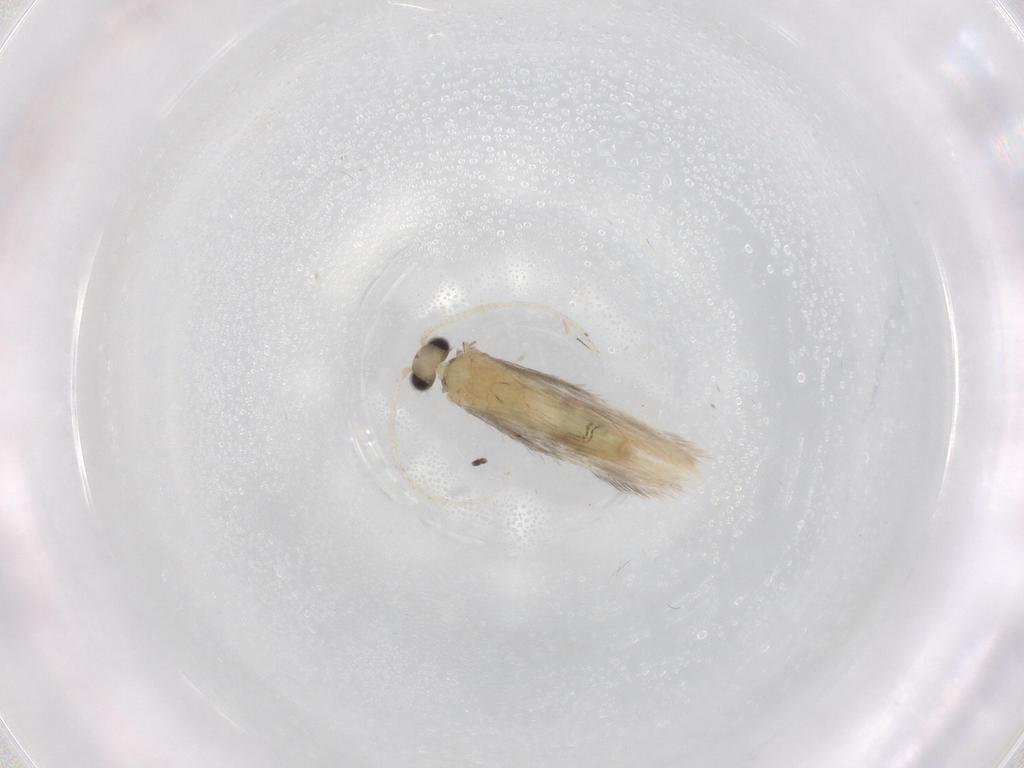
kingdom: Animalia
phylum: Arthropoda
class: Insecta
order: Trichoptera
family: Hydroptilidae
